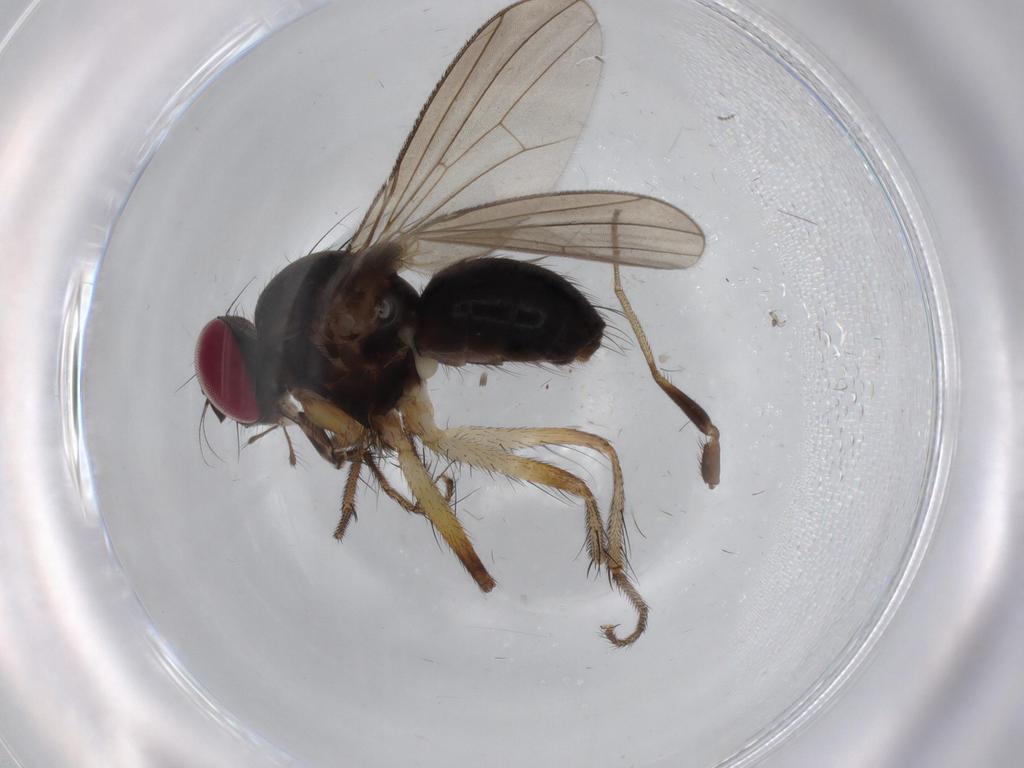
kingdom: Animalia
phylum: Arthropoda
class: Insecta
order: Diptera
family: Anthomyiidae
